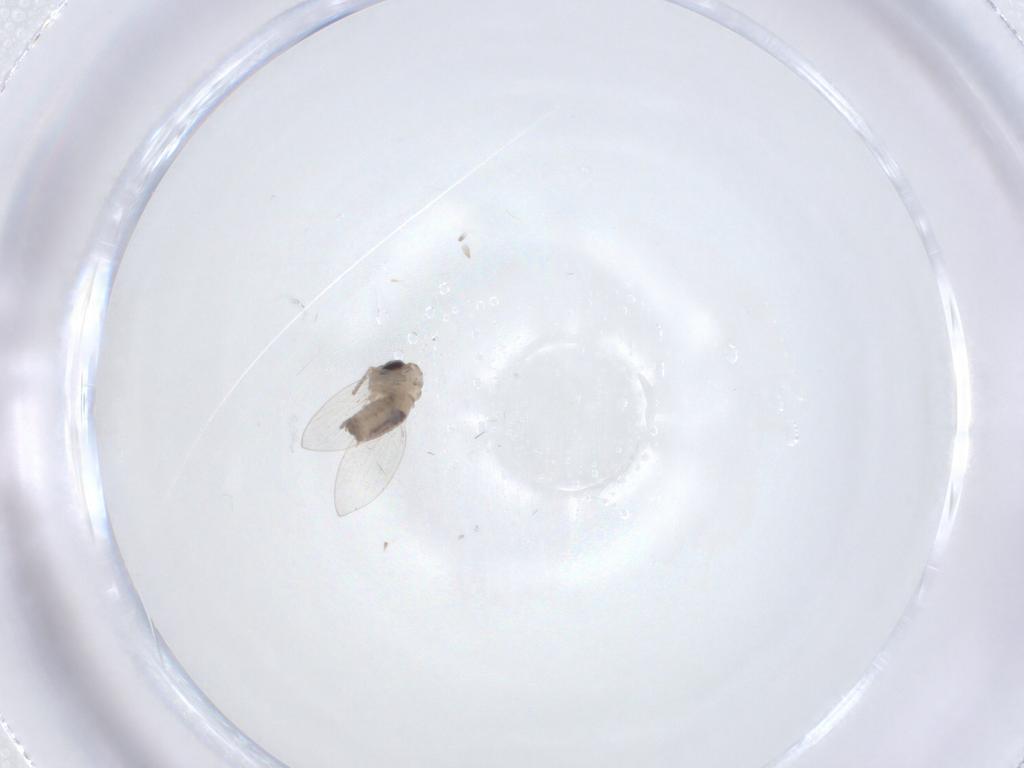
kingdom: Animalia
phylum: Arthropoda
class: Insecta
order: Diptera
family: Psychodidae
